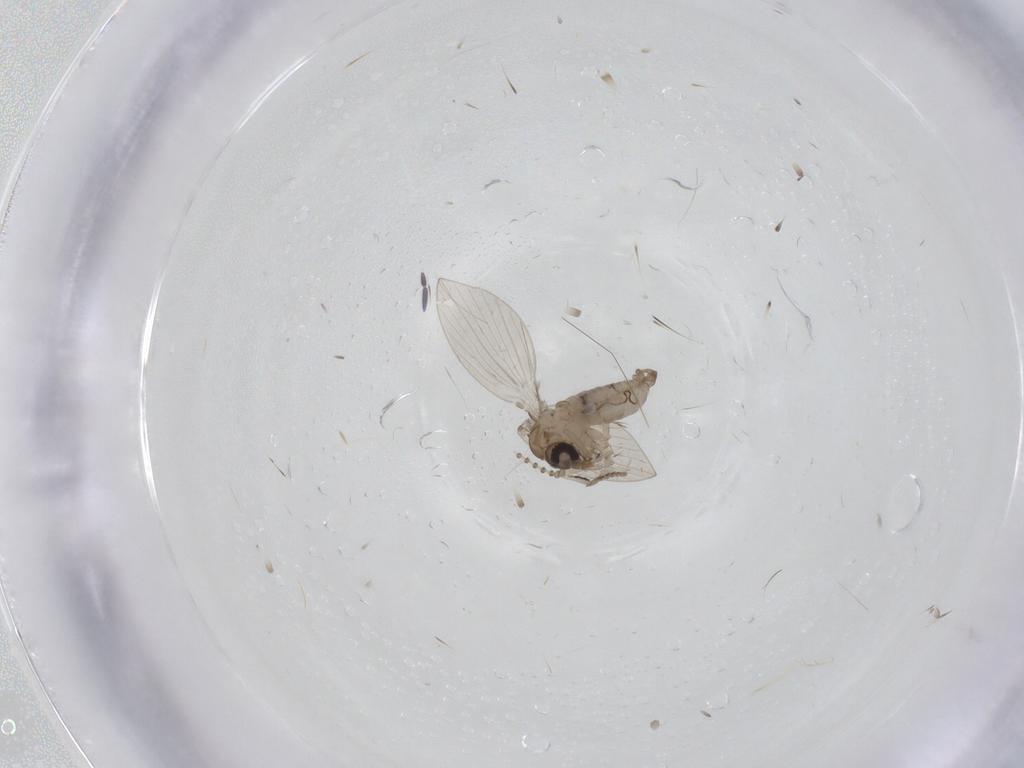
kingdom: Animalia
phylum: Arthropoda
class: Insecta
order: Diptera
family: Psychodidae
